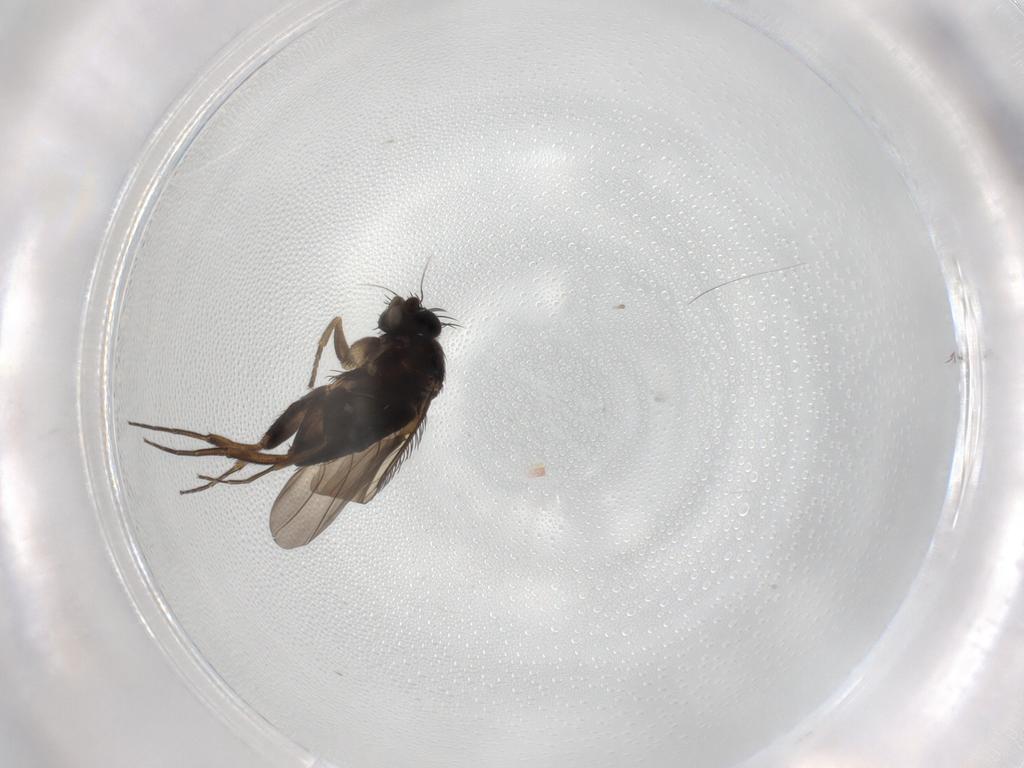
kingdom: Animalia
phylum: Arthropoda
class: Insecta
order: Diptera
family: Phoridae
